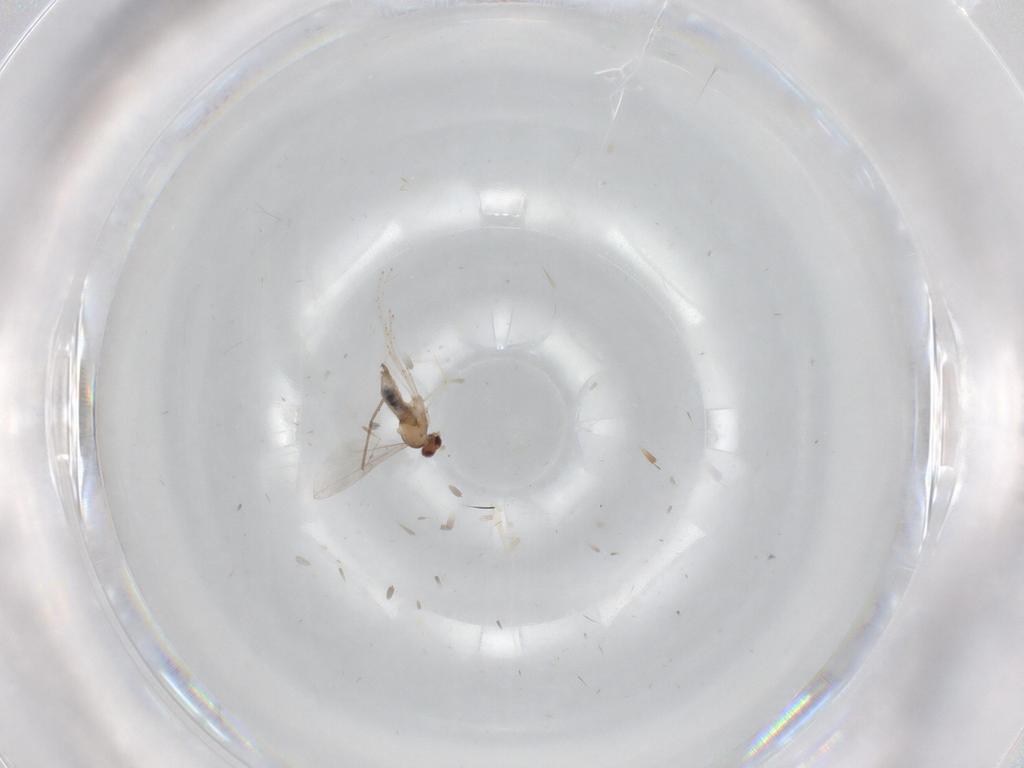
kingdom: Animalia
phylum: Arthropoda
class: Insecta
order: Diptera
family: Cecidomyiidae
